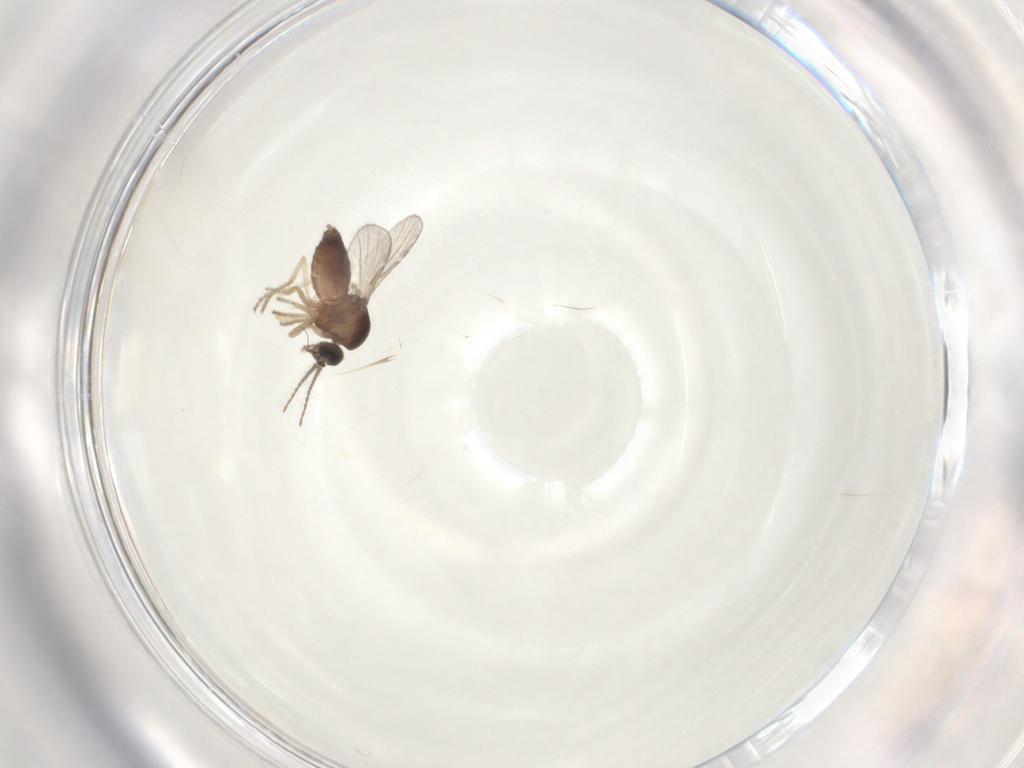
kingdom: Animalia
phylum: Arthropoda
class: Insecta
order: Diptera
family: Ceratopogonidae
